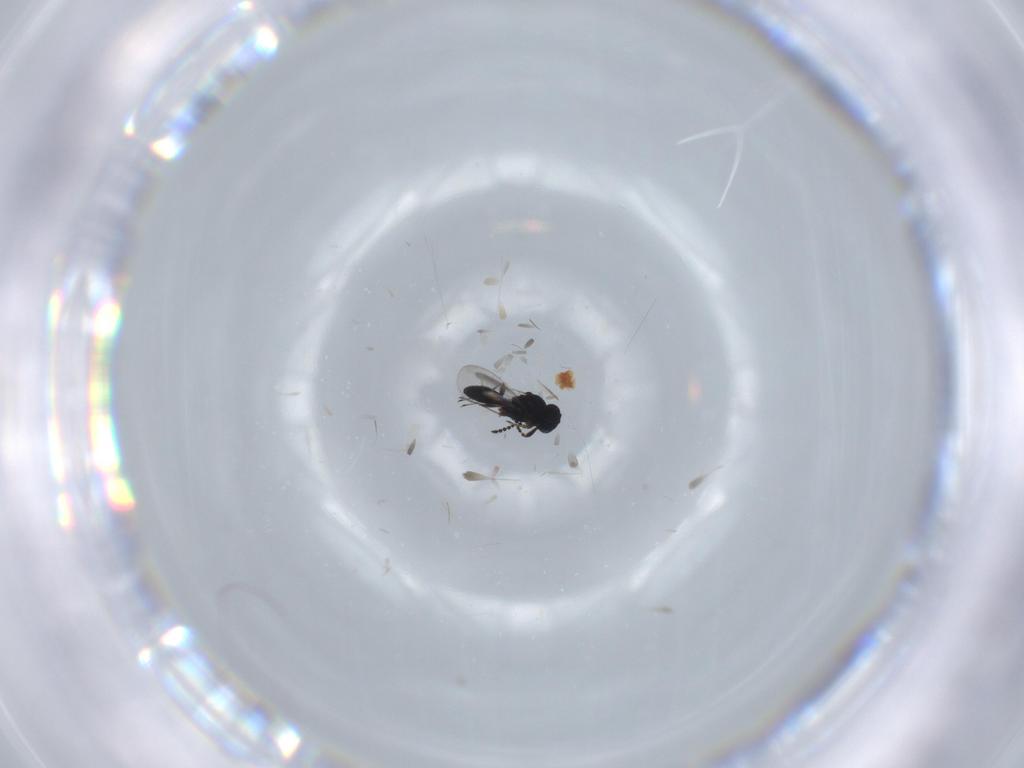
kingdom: Animalia
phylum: Arthropoda
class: Insecta
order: Hymenoptera
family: Platygastridae
